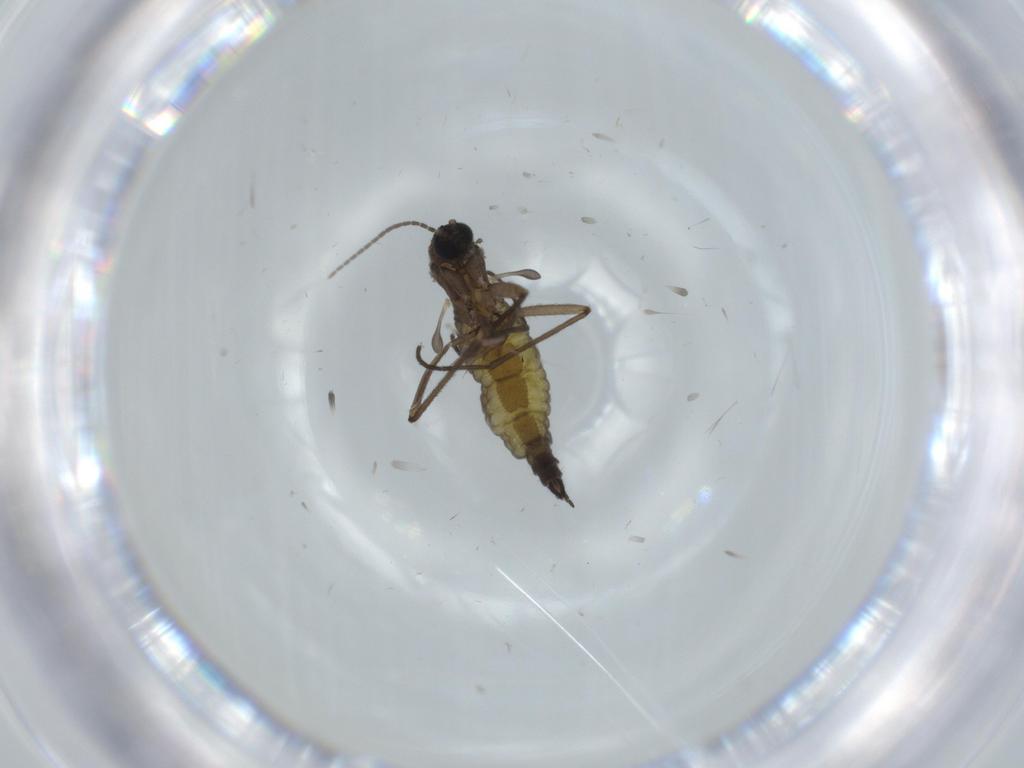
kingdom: Animalia
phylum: Arthropoda
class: Insecta
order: Diptera
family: Sciaridae
